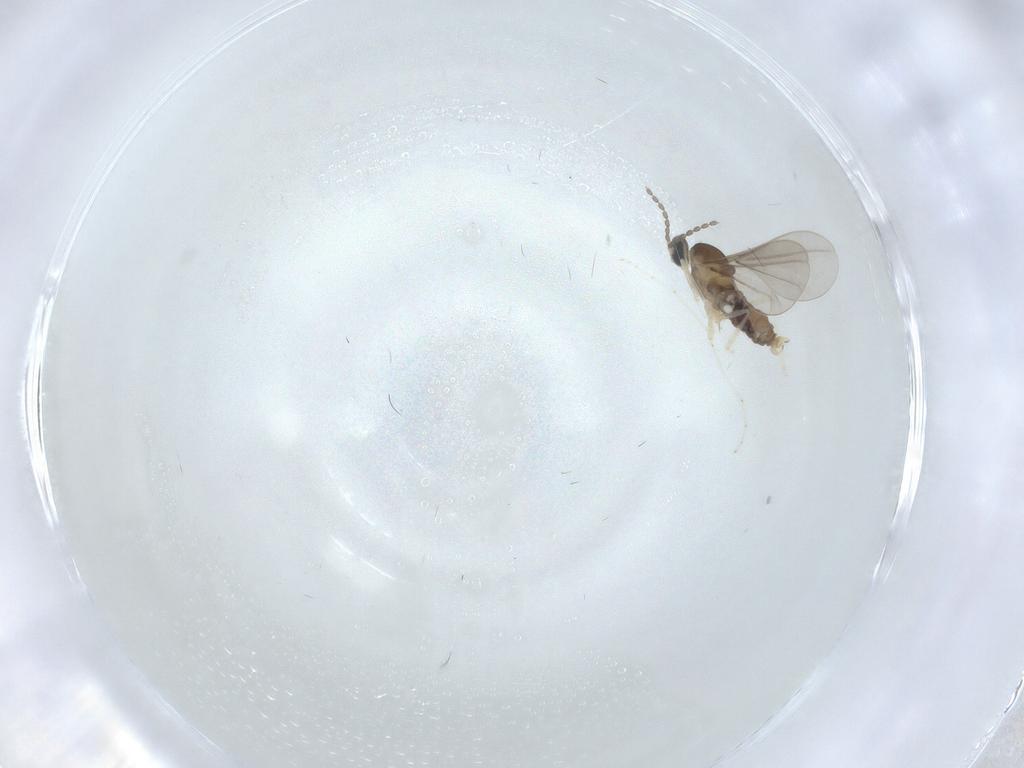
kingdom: Animalia
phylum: Arthropoda
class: Insecta
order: Diptera
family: Cecidomyiidae
